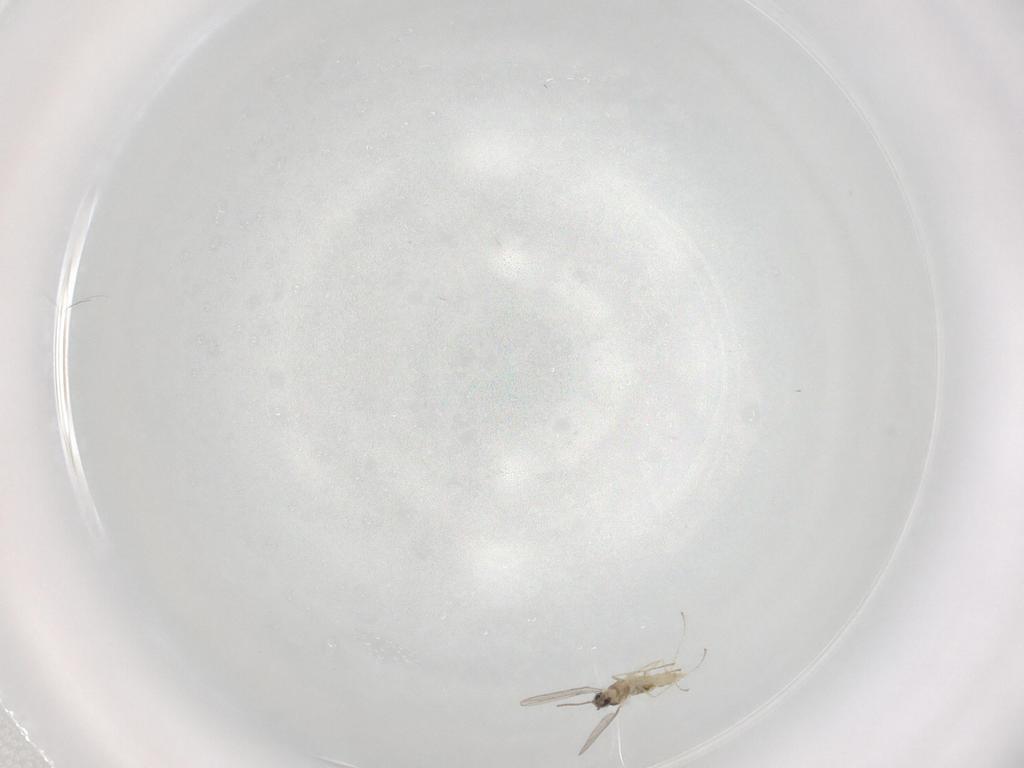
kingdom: Animalia
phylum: Arthropoda
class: Insecta
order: Diptera
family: Cecidomyiidae
